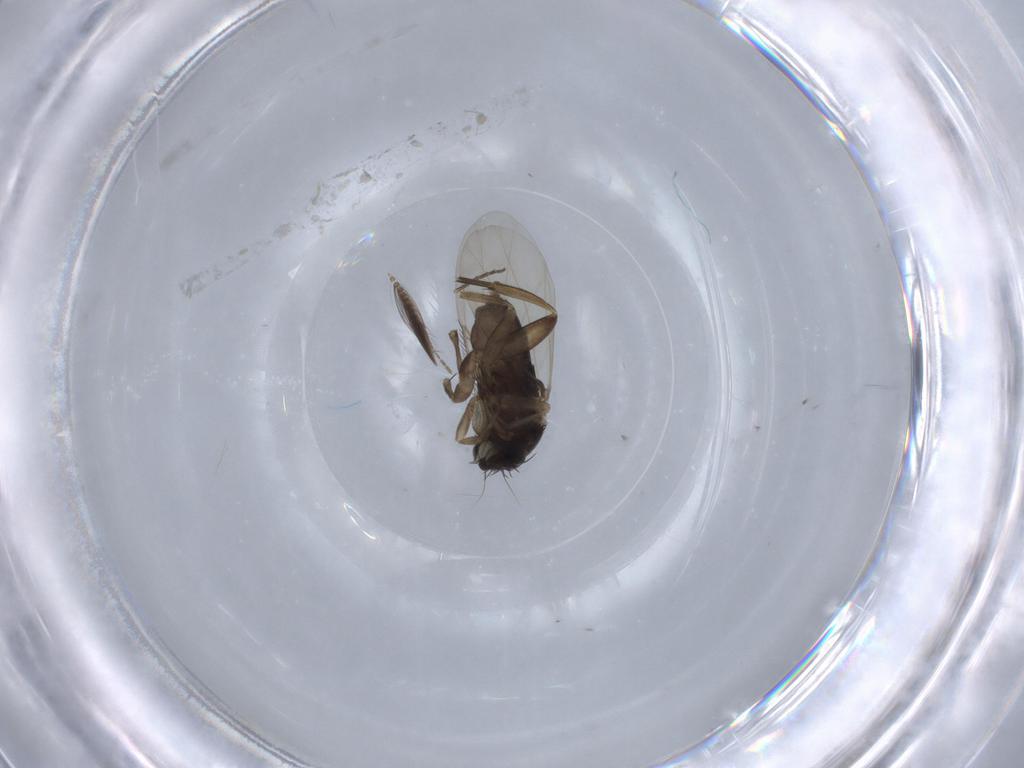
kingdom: Animalia
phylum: Arthropoda
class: Insecta
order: Diptera
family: Phoridae
